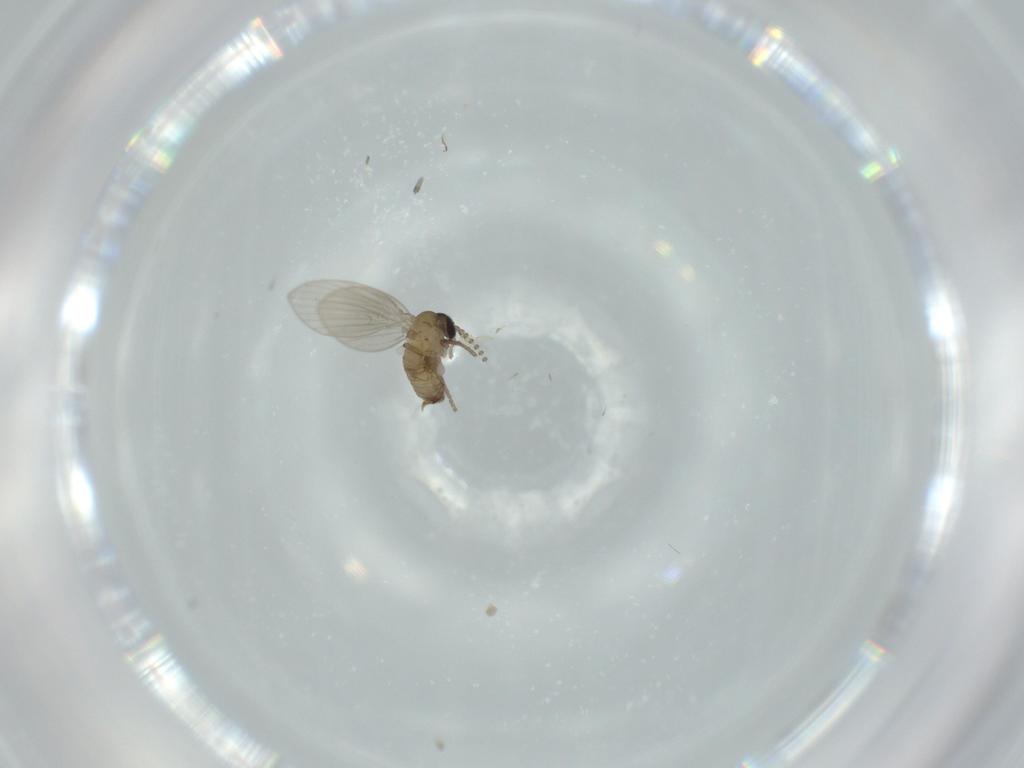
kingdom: Animalia
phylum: Arthropoda
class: Insecta
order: Diptera
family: Psychodidae
